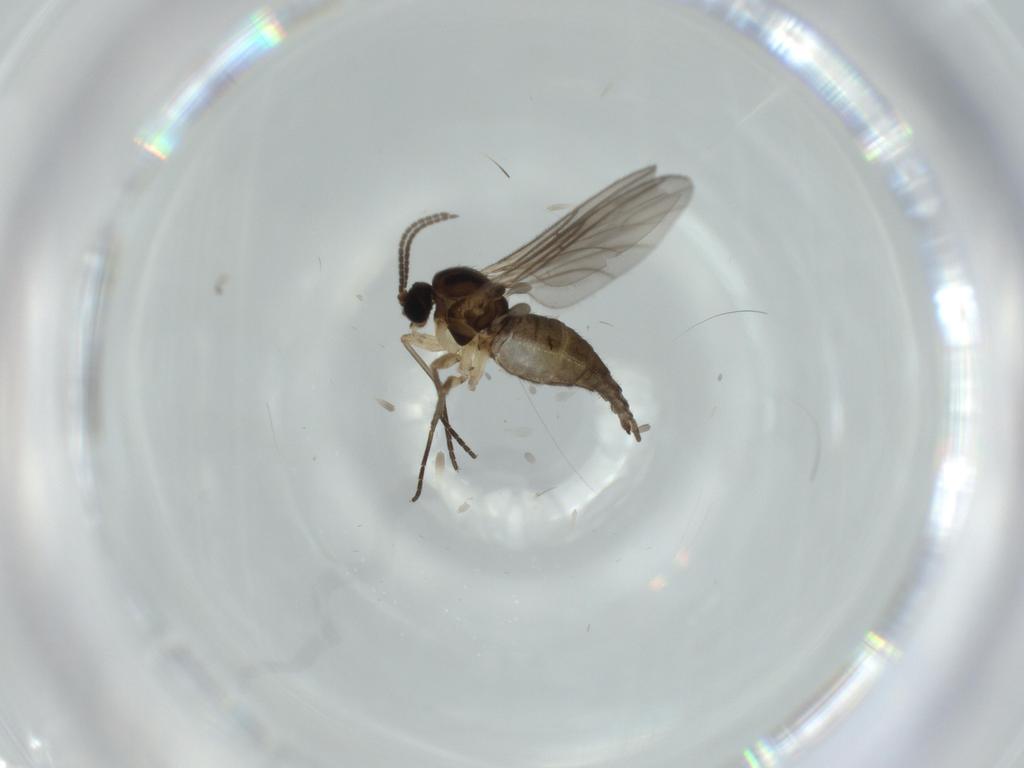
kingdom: Animalia
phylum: Arthropoda
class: Insecta
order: Diptera
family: Sciaridae
